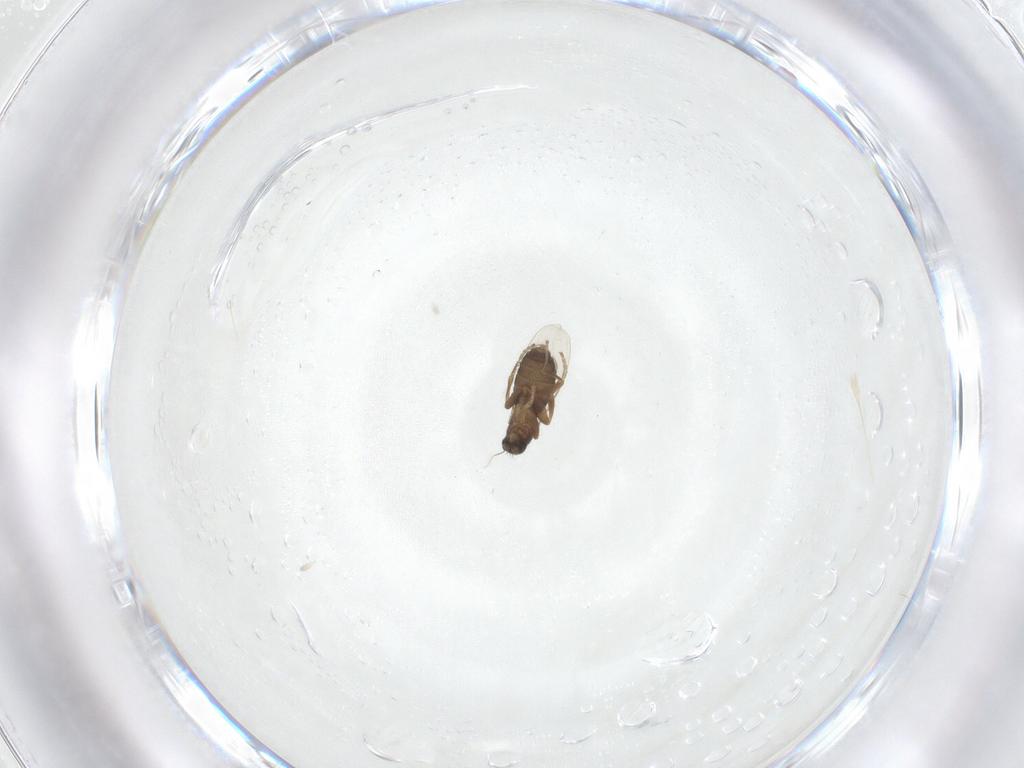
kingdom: Animalia
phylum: Arthropoda
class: Insecta
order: Diptera
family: Phoridae
